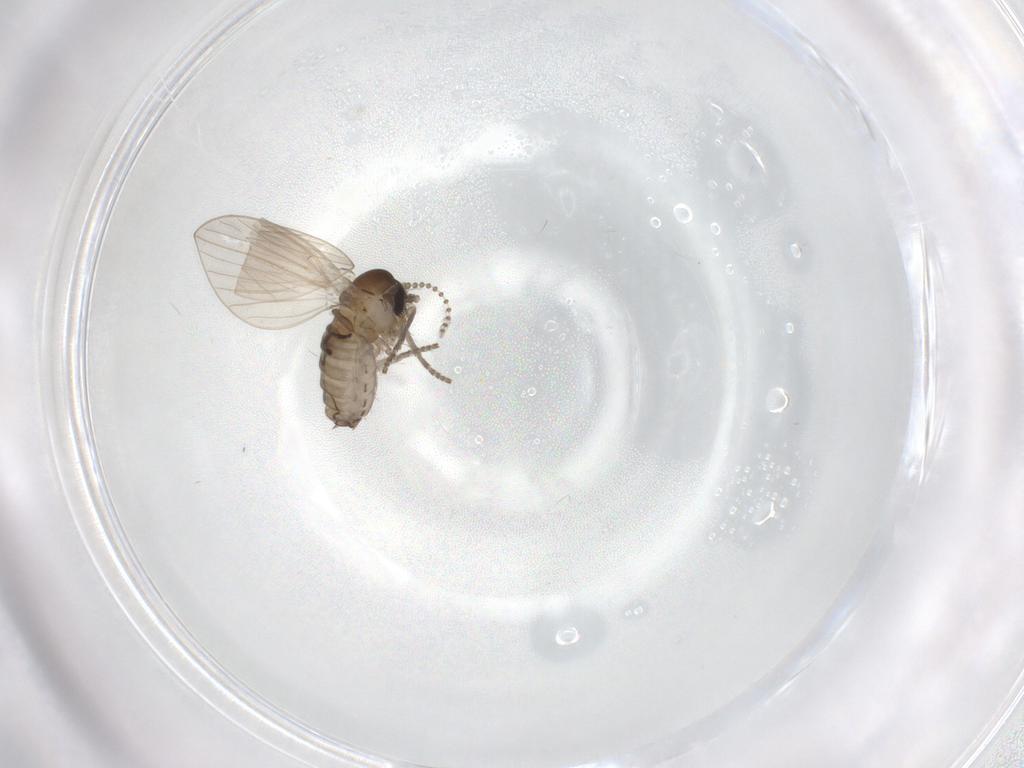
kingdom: Animalia
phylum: Arthropoda
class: Insecta
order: Diptera
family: Psychodidae
